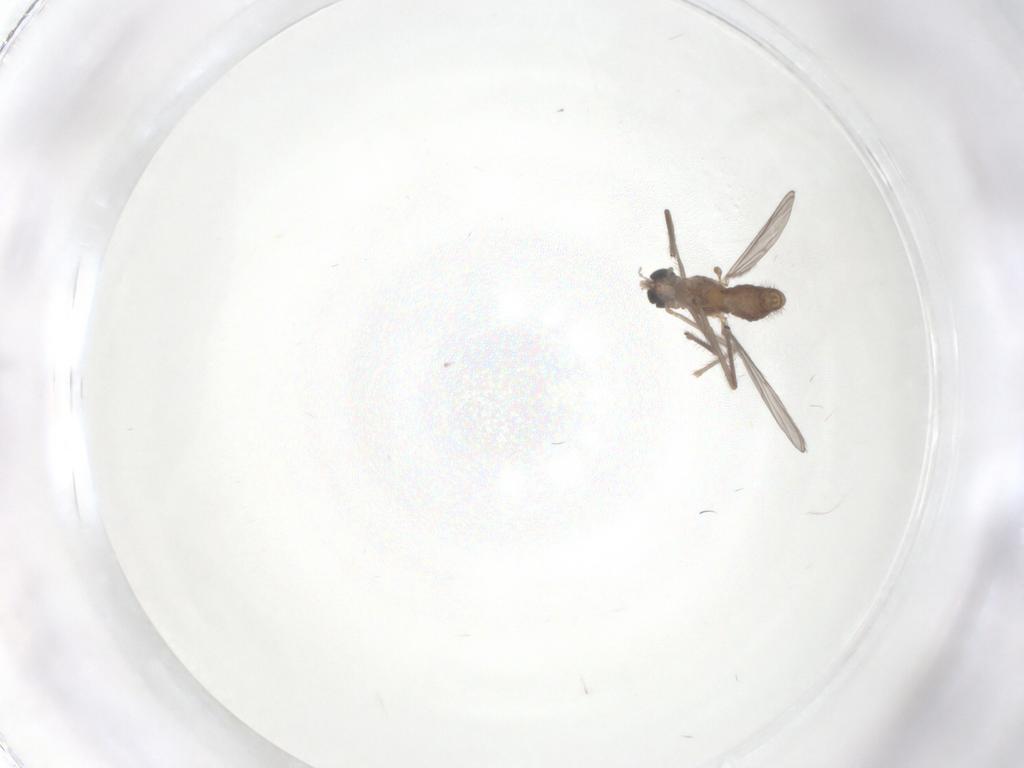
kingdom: Animalia
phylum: Arthropoda
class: Insecta
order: Diptera
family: Chironomidae
